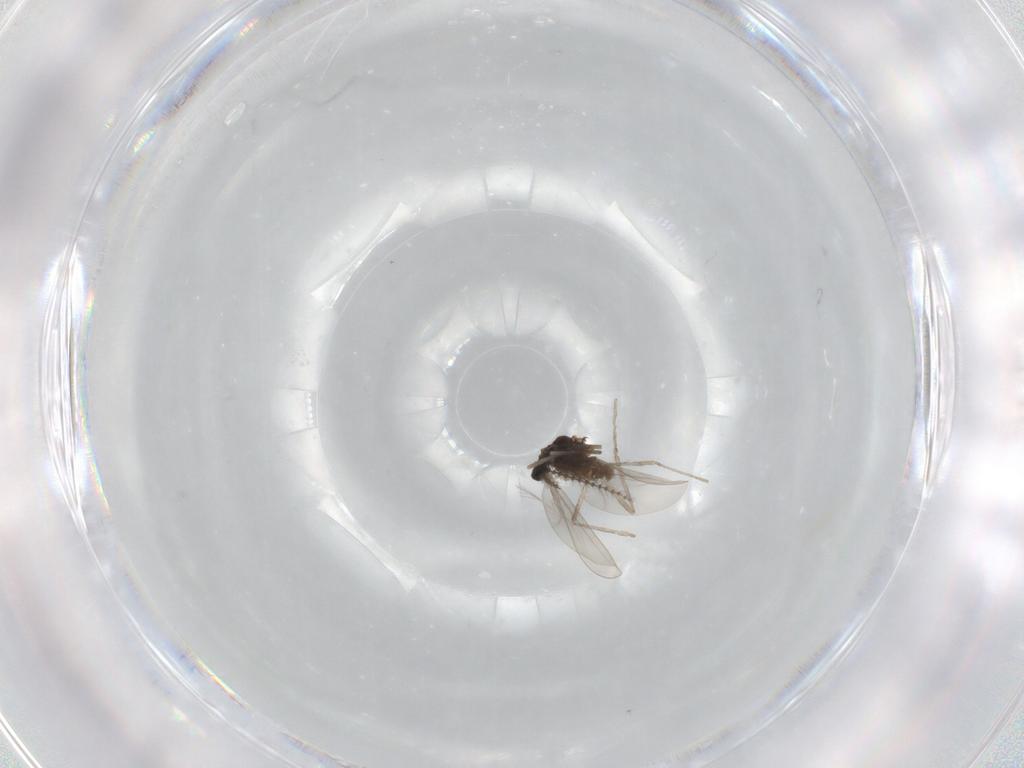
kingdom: Animalia
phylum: Arthropoda
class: Insecta
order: Diptera
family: Cecidomyiidae
